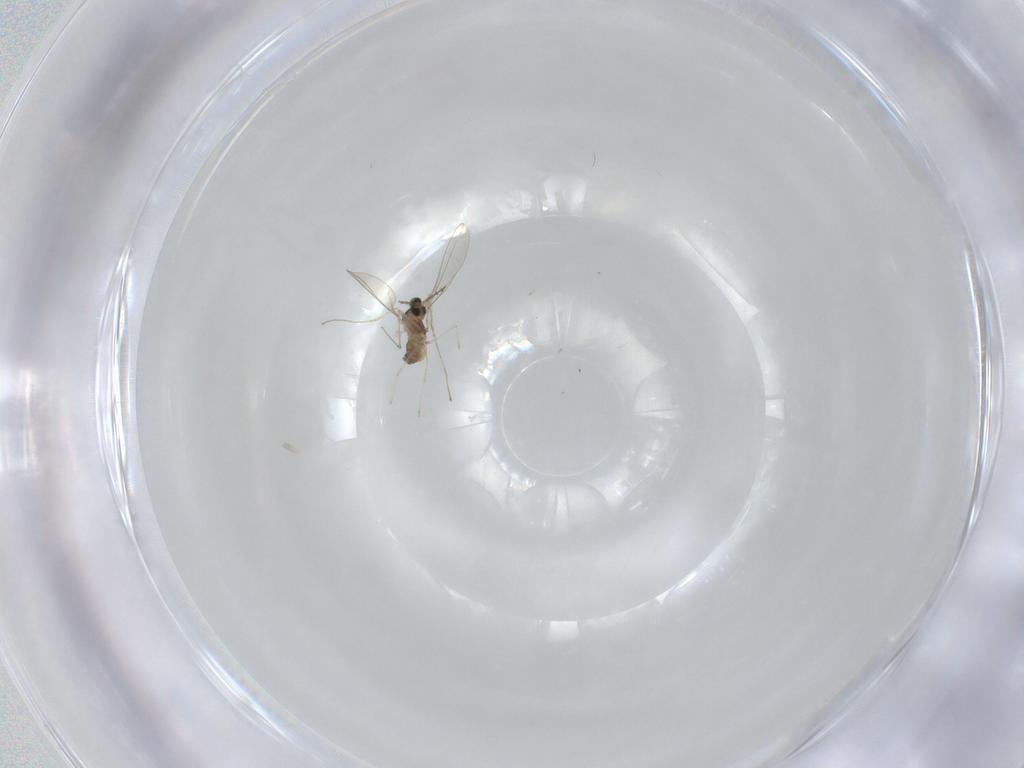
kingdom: Animalia
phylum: Arthropoda
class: Insecta
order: Diptera
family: Cecidomyiidae
